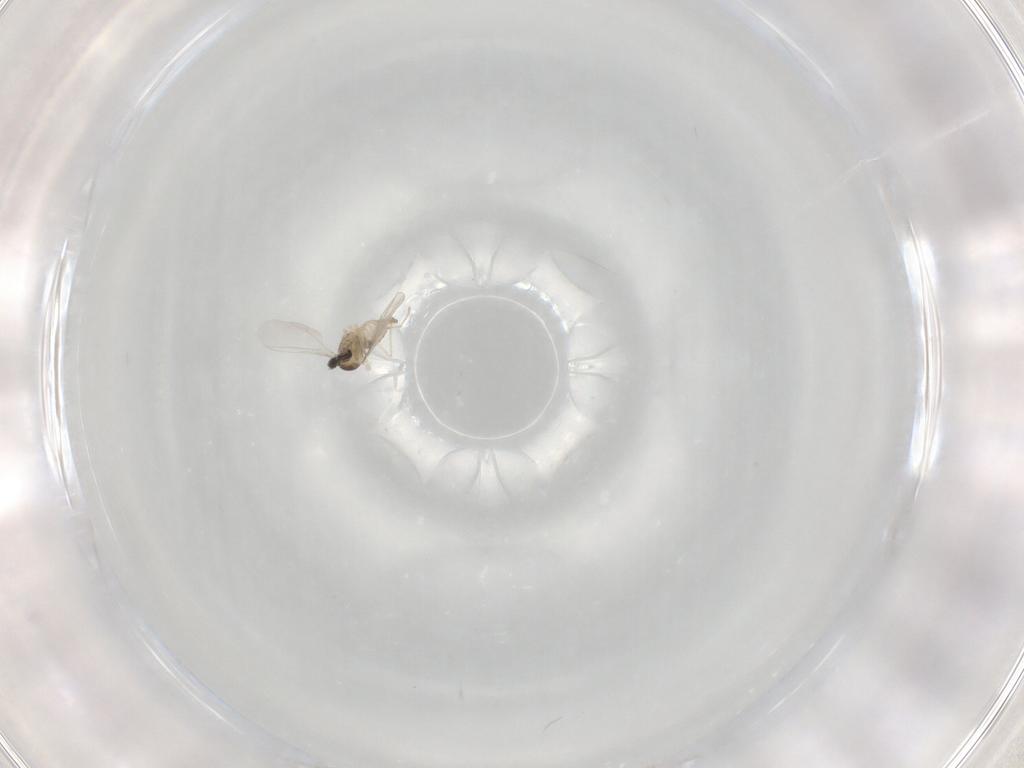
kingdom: Animalia
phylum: Arthropoda
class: Insecta
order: Diptera
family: Cecidomyiidae
